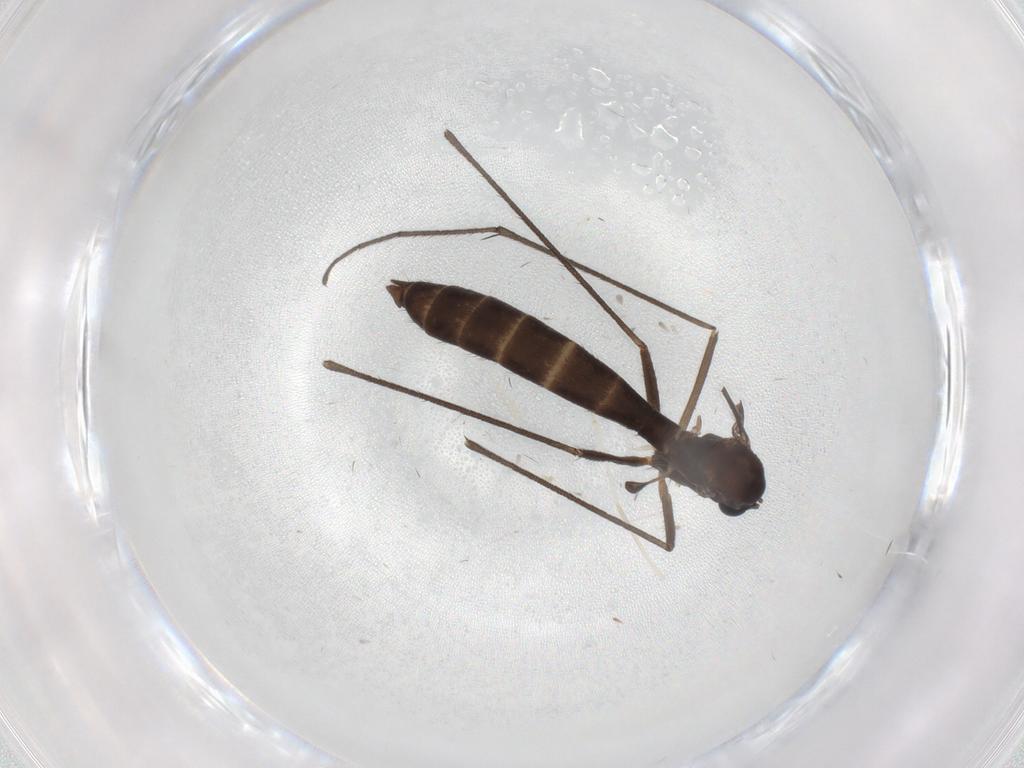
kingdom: Animalia
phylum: Arthropoda
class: Insecta
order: Diptera
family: Keroplatidae
